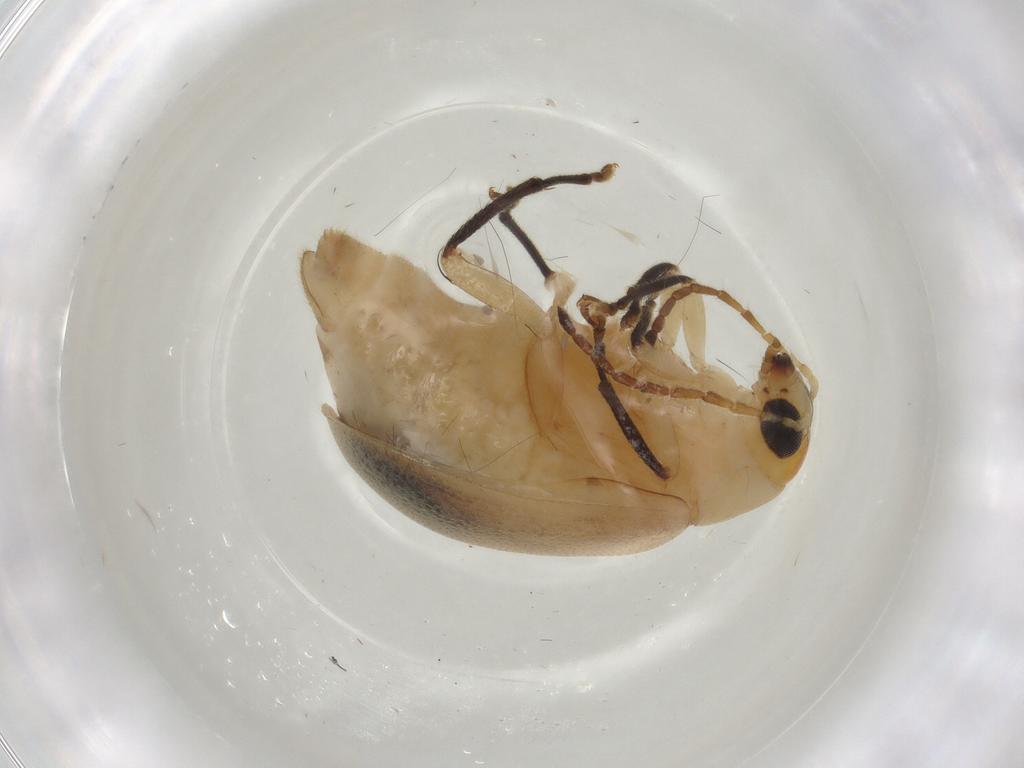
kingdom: Animalia
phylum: Arthropoda
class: Insecta
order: Coleoptera
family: Chrysomelidae
